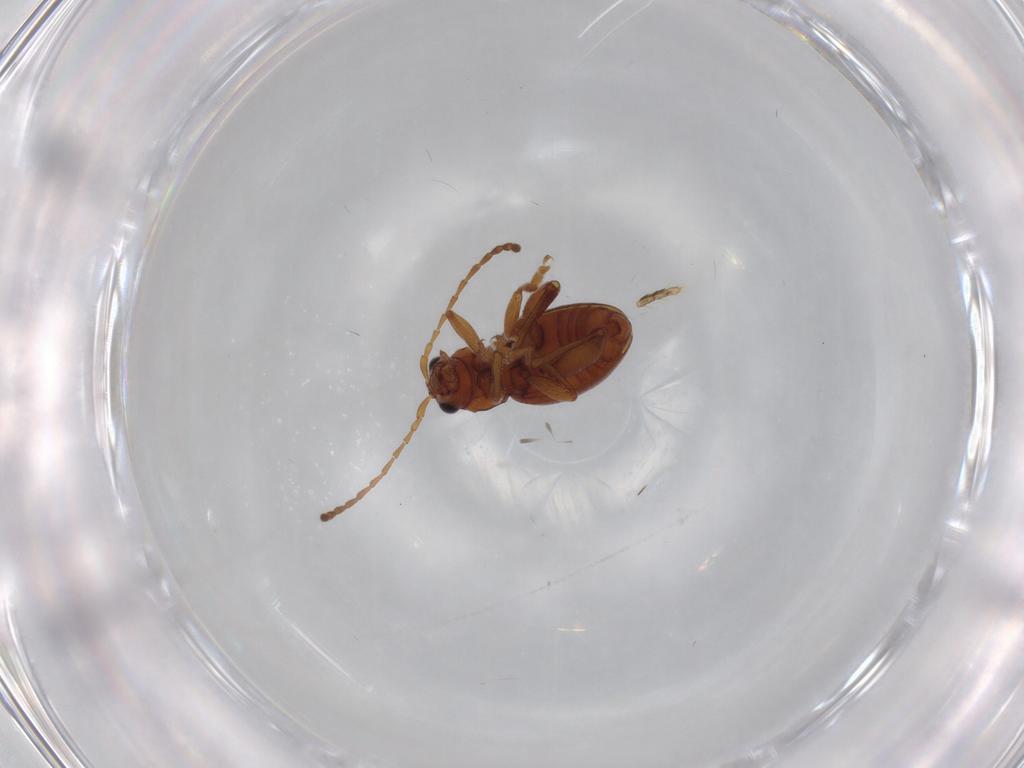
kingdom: Animalia
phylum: Arthropoda
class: Insecta
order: Coleoptera
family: Chrysomelidae
